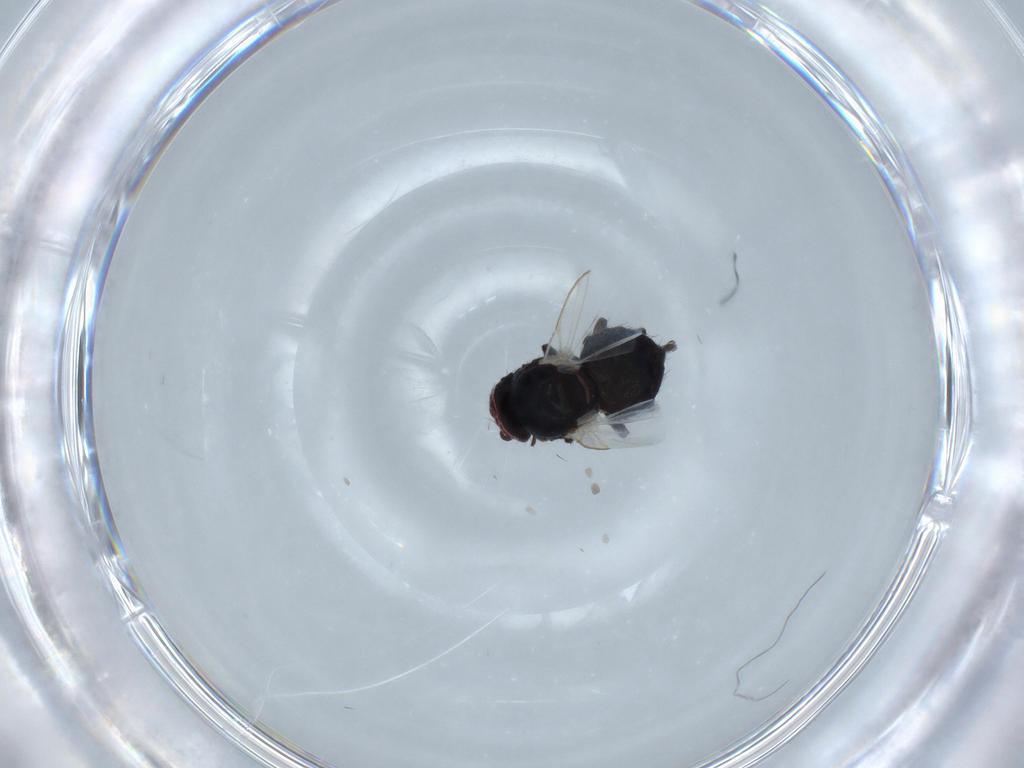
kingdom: Animalia
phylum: Arthropoda
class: Insecta
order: Diptera
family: Agromyzidae
